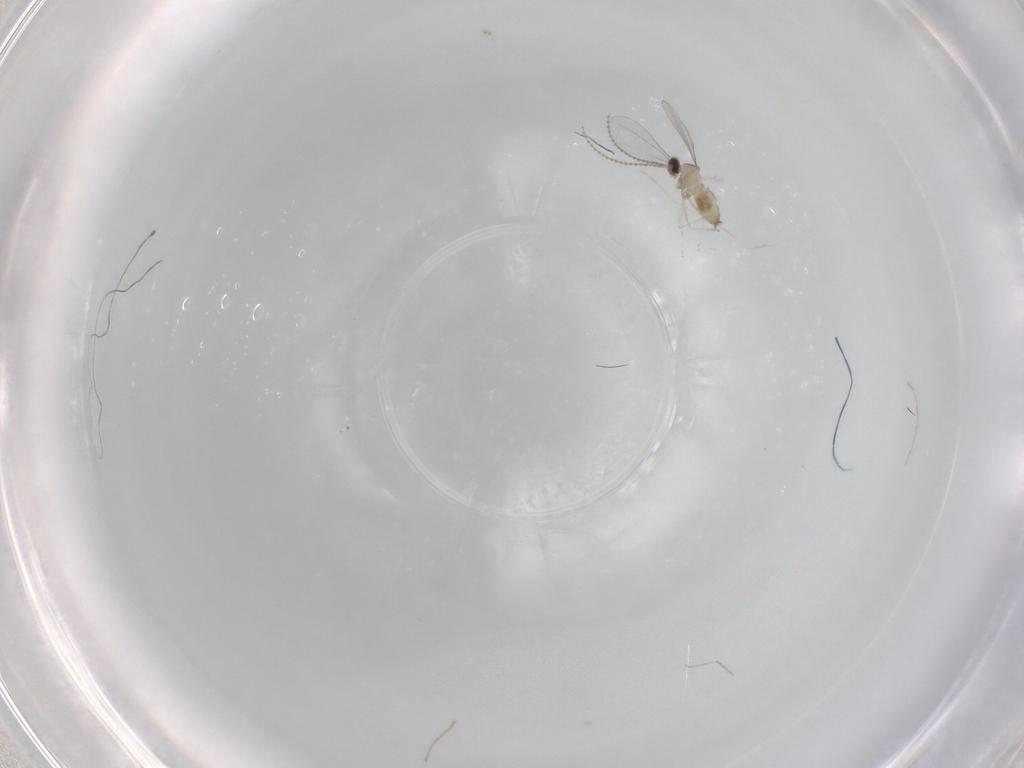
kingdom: Animalia
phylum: Arthropoda
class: Insecta
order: Diptera
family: Cecidomyiidae
